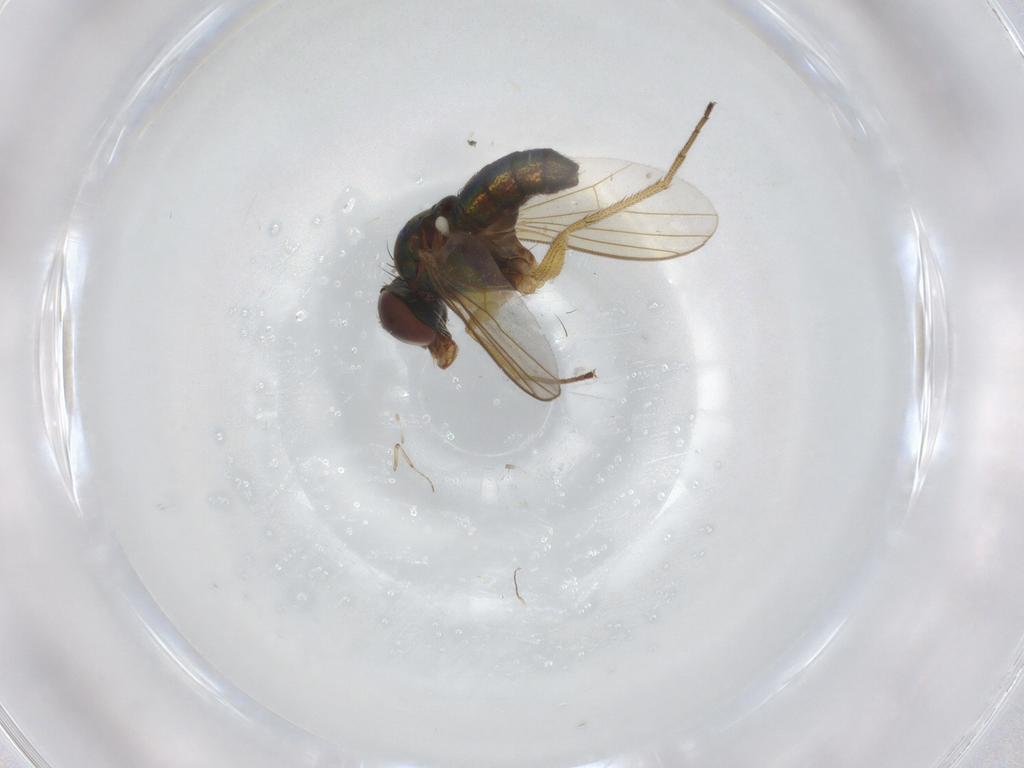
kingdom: Animalia
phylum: Arthropoda
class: Insecta
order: Diptera
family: Dolichopodidae
